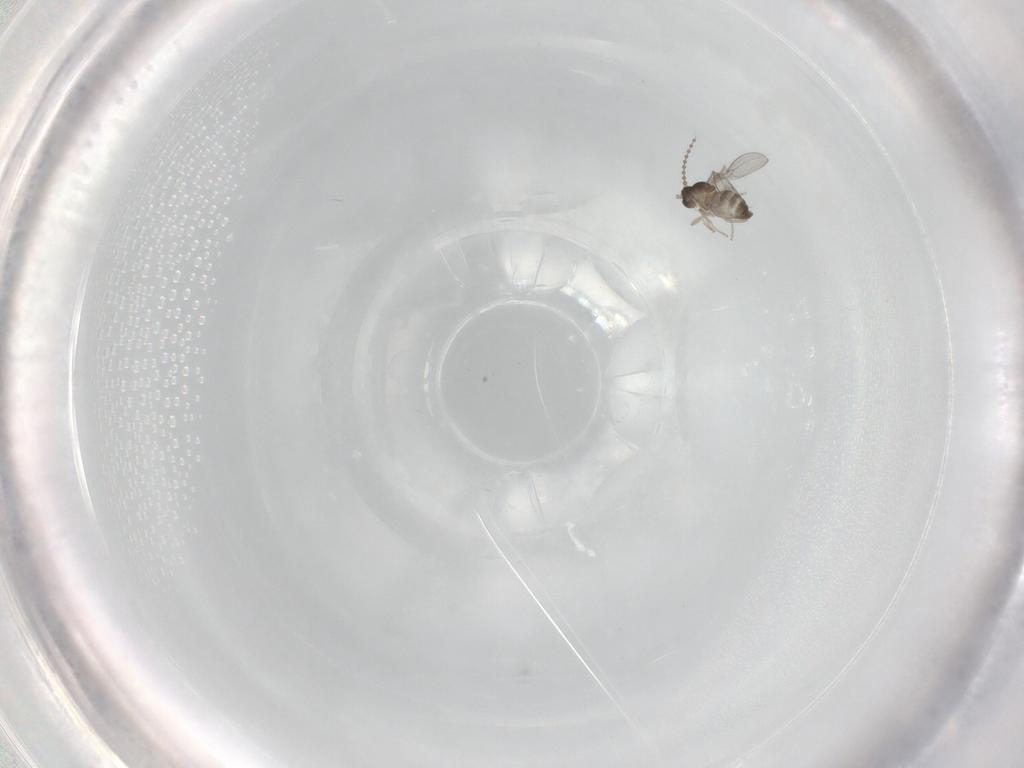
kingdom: Animalia
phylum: Arthropoda
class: Insecta
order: Diptera
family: Cecidomyiidae
